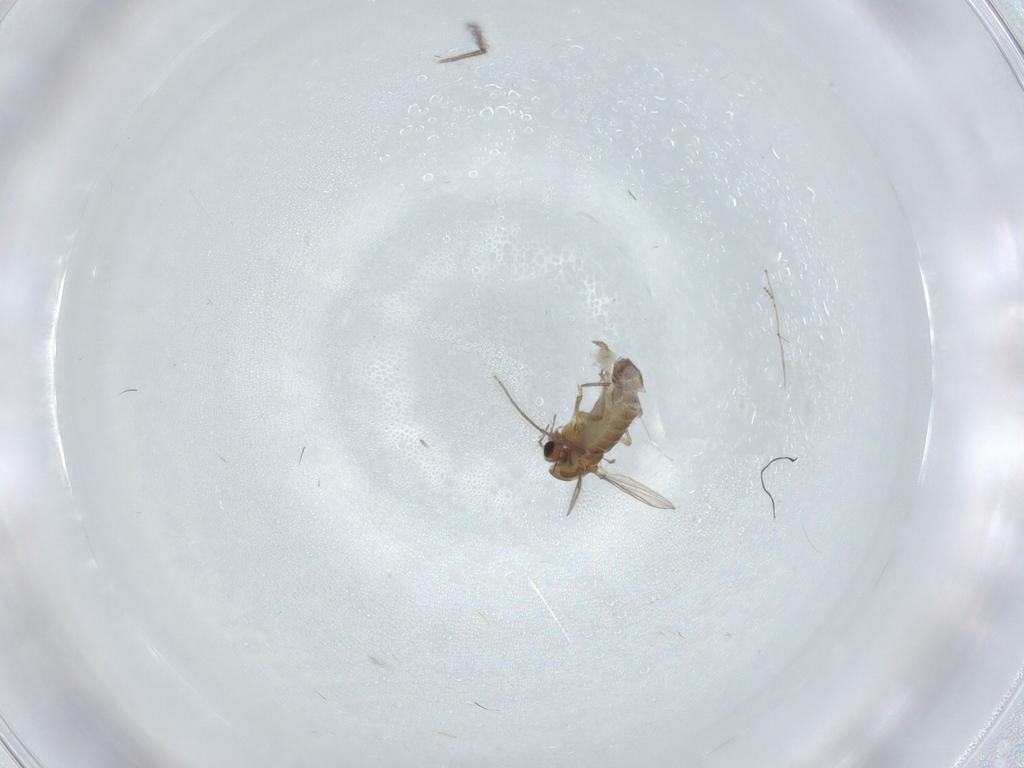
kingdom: Animalia
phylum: Arthropoda
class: Insecta
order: Diptera
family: Chironomidae
